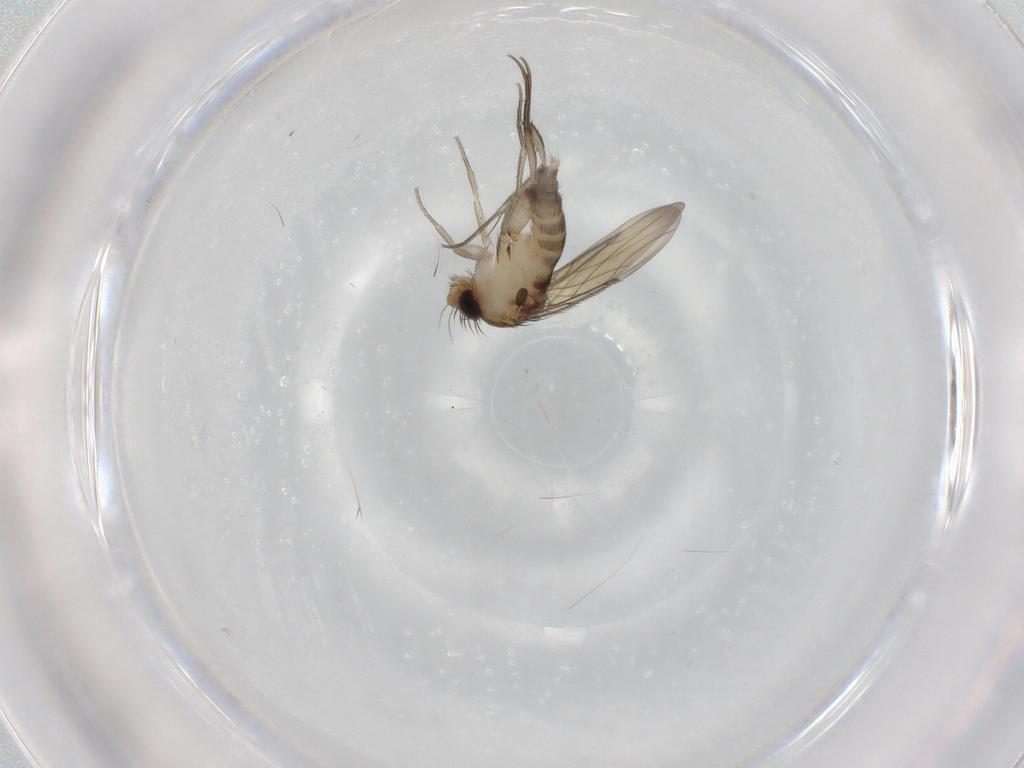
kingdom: Animalia
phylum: Arthropoda
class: Insecta
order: Diptera
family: Phoridae
